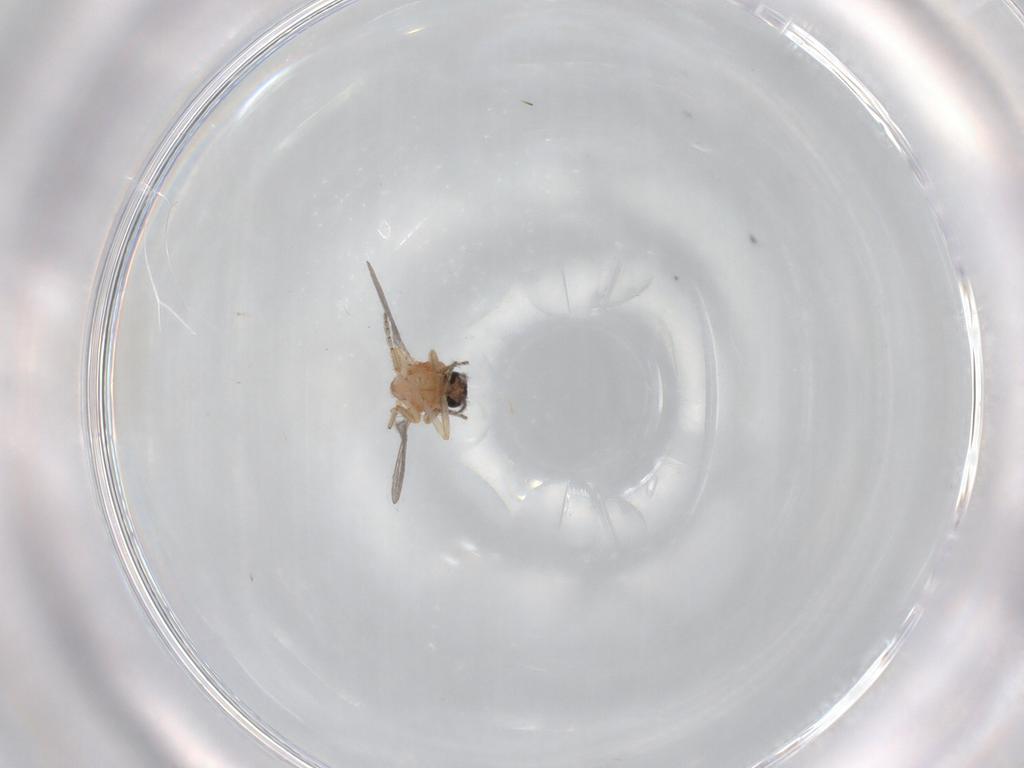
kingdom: Animalia
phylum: Arthropoda
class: Insecta
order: Diptera
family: Ceratopogonidae
